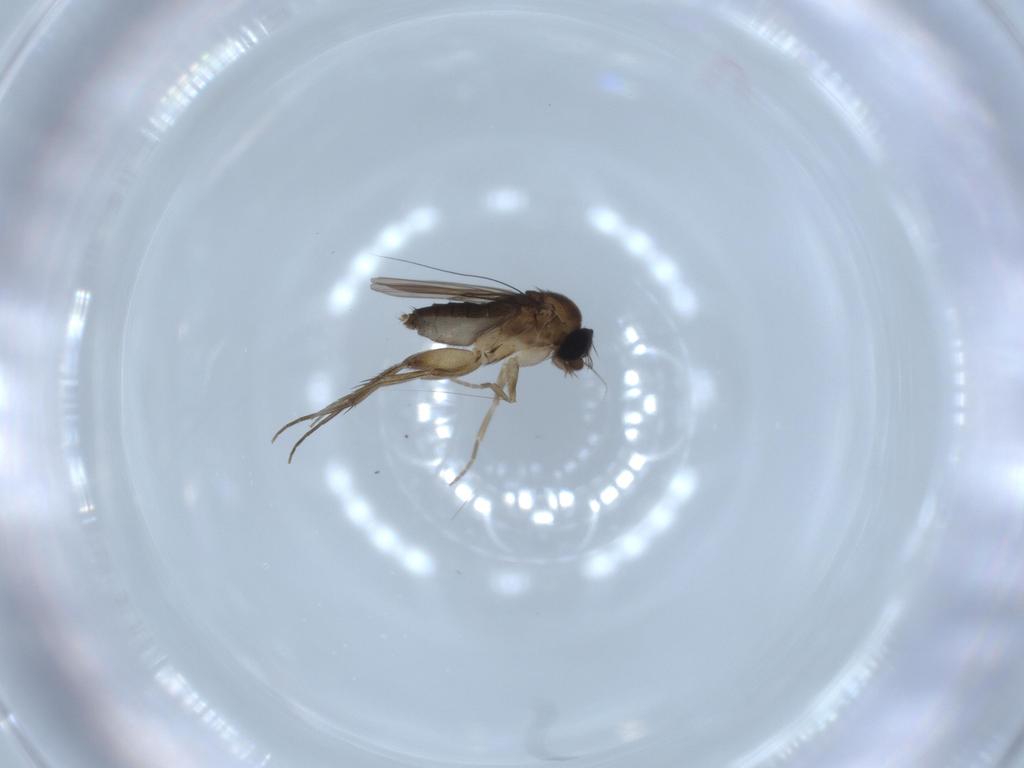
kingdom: Animalia
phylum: Arthropoda
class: Insecta
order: Diptera
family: Phoridae
